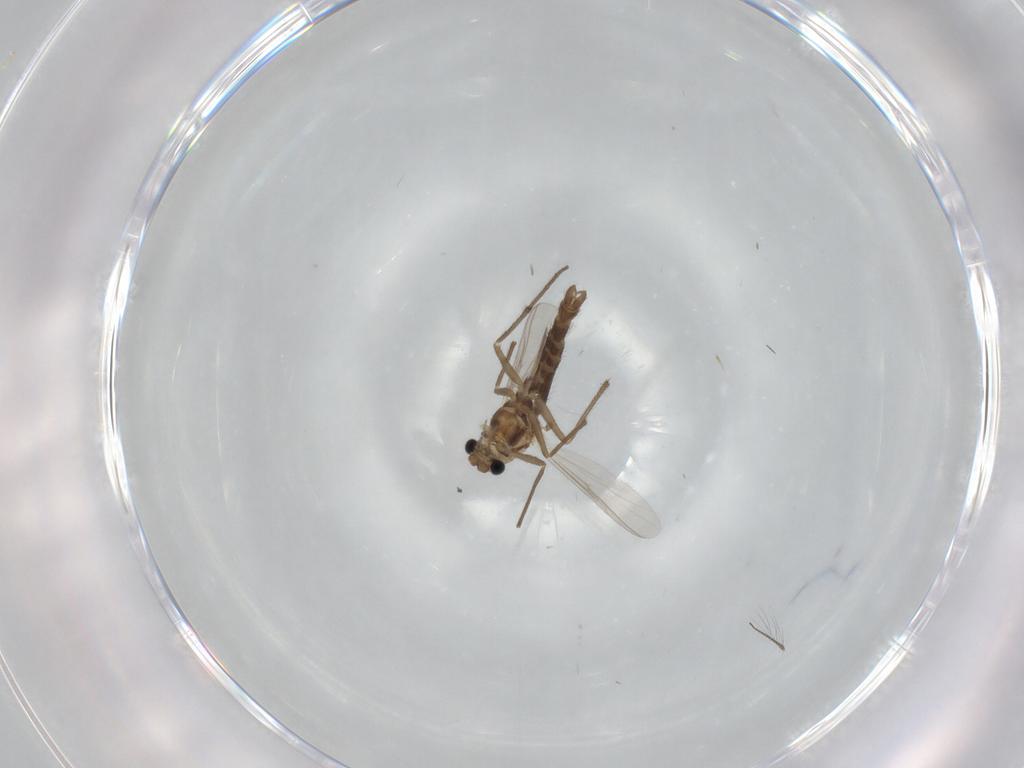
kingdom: Animalia
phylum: Arthropoda
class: Insecta
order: Diptera
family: Chironomidae
